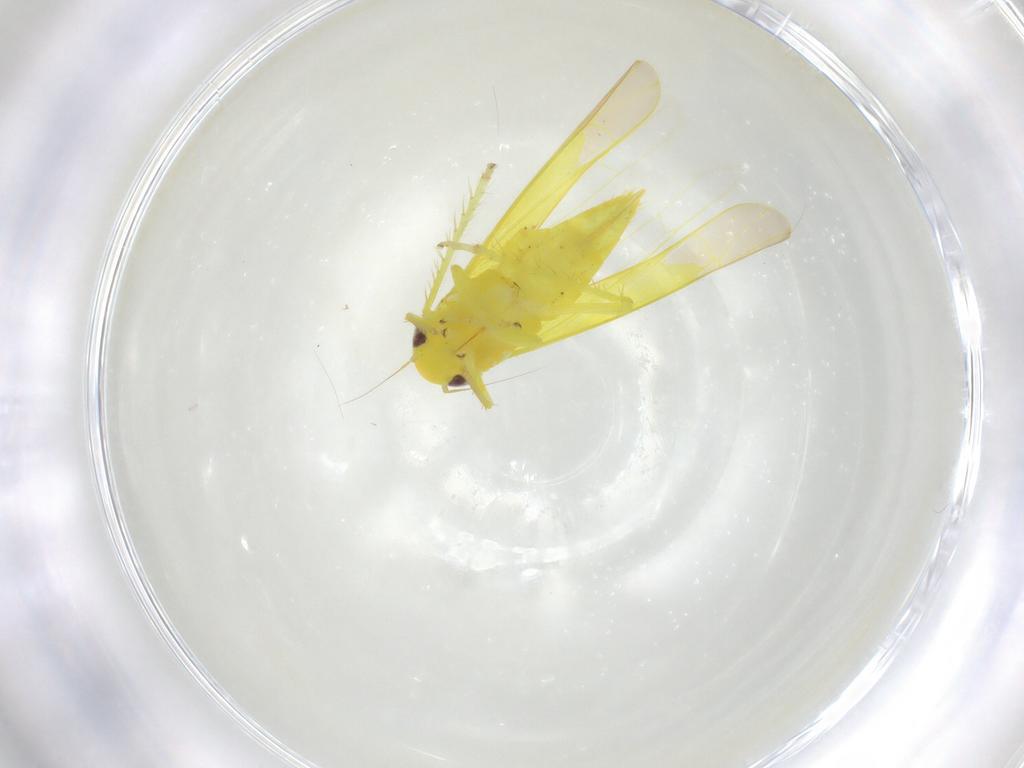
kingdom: Animalia
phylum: Arthropoda
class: Insecta
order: Hemiptera
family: Cicadellidae
